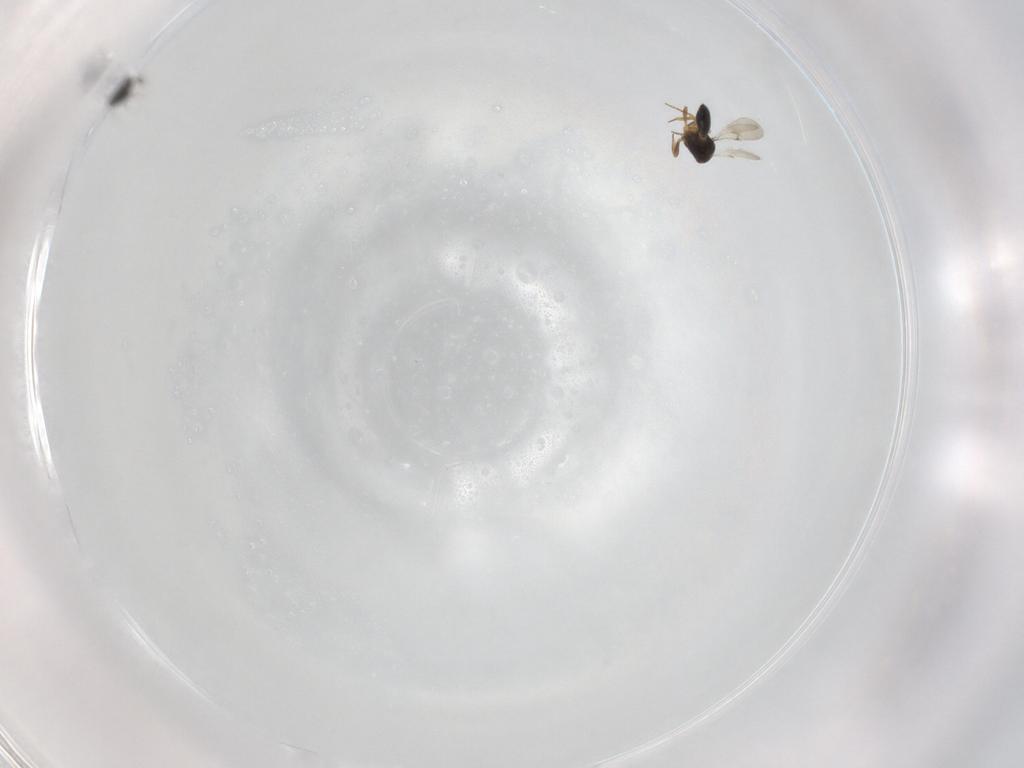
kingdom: Animalia
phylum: Arthropoda
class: Insecta
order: Hymenoptera
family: Scelionidae
